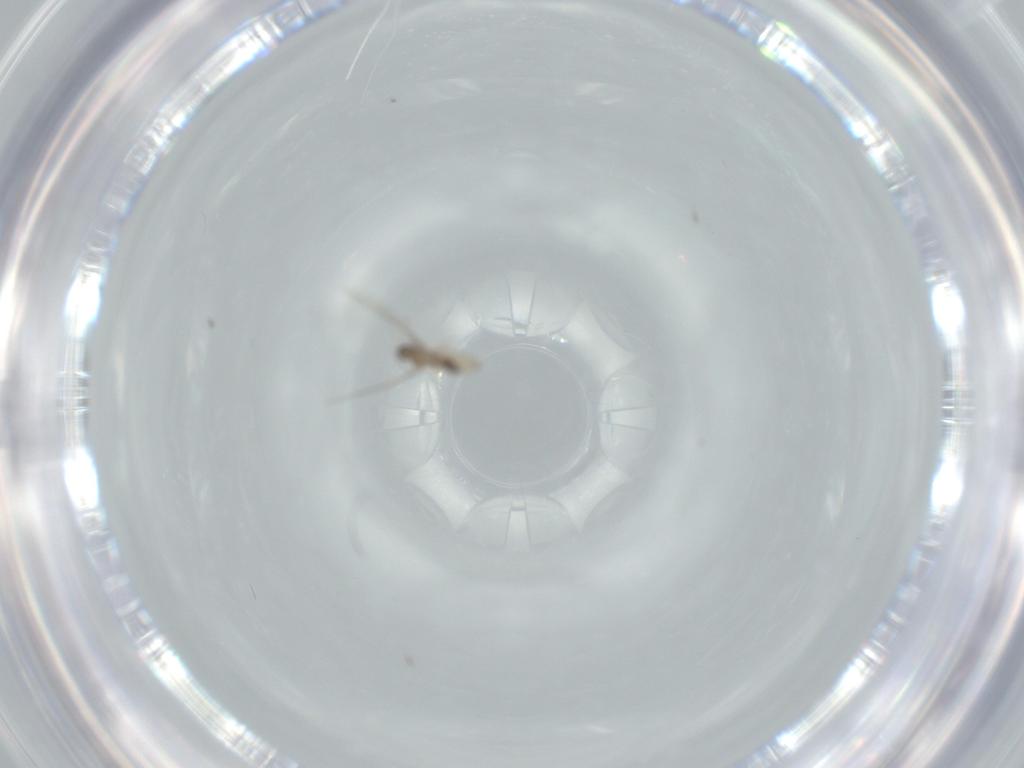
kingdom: Animalia
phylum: Arthropoda
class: Insecta
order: Diptera
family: Cecidomyiidae
